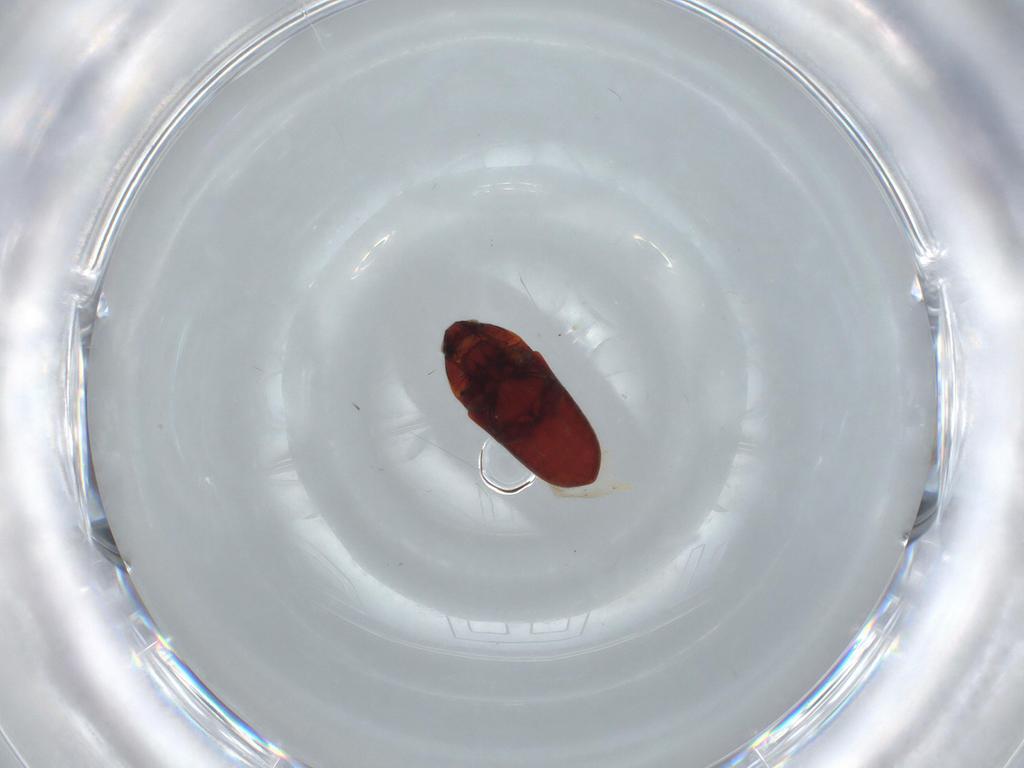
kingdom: Animalia
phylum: Arthropoda
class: Insecta
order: Coleoptera
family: Throscidae
